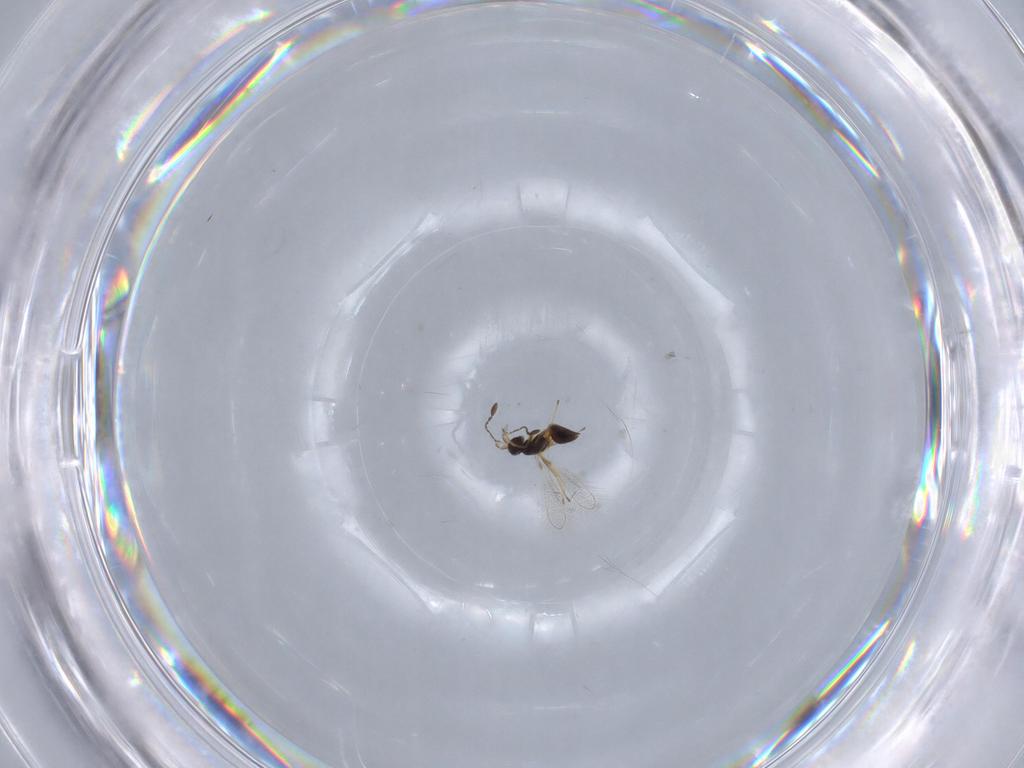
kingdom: Animalia
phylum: Arthropoda
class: Insecta
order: Hymenoptera
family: Mymaridae
